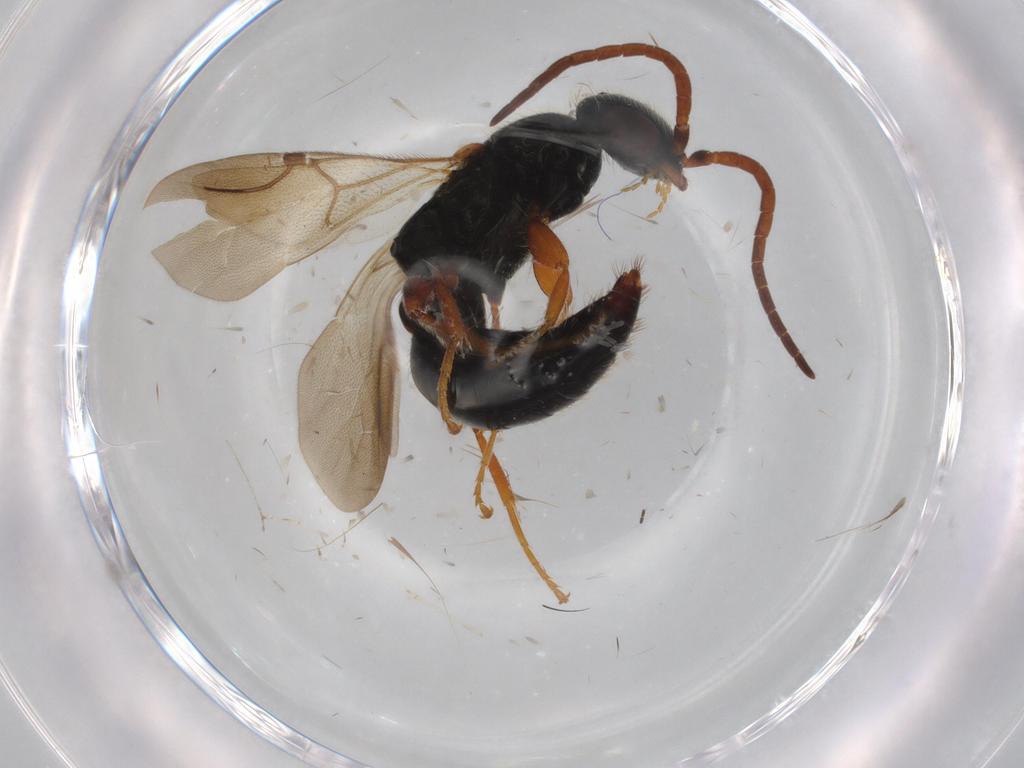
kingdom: Animalia
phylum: Arthropoda
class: Insecta
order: Hymenoptera
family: Bethylidae
